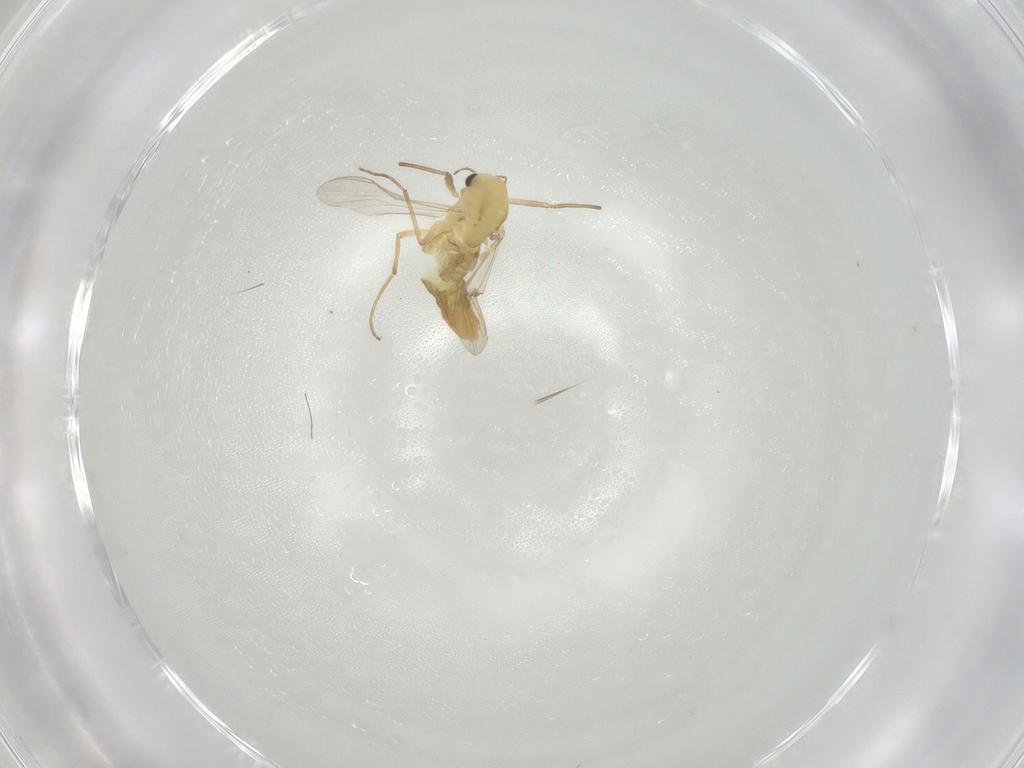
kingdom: Animalia
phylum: Arthropoda
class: Insecta
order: Diptera
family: Chironomidae
